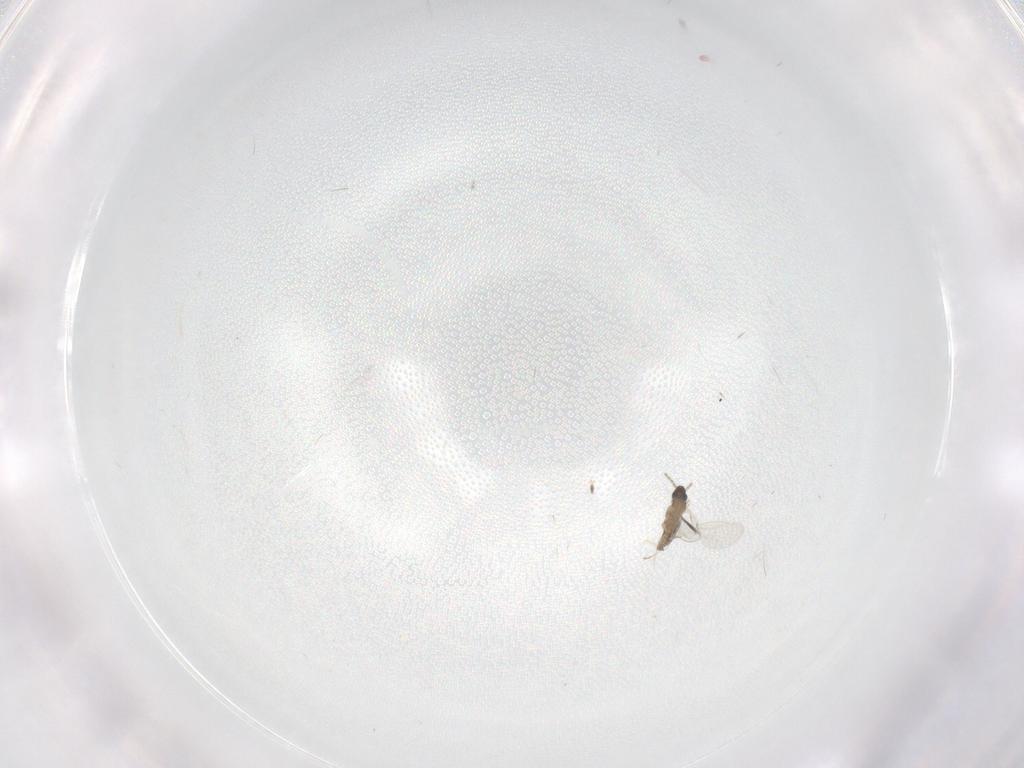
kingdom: Animalia
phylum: Arthropoda
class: Insecta
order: Diptera
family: Cecidomyiidae
